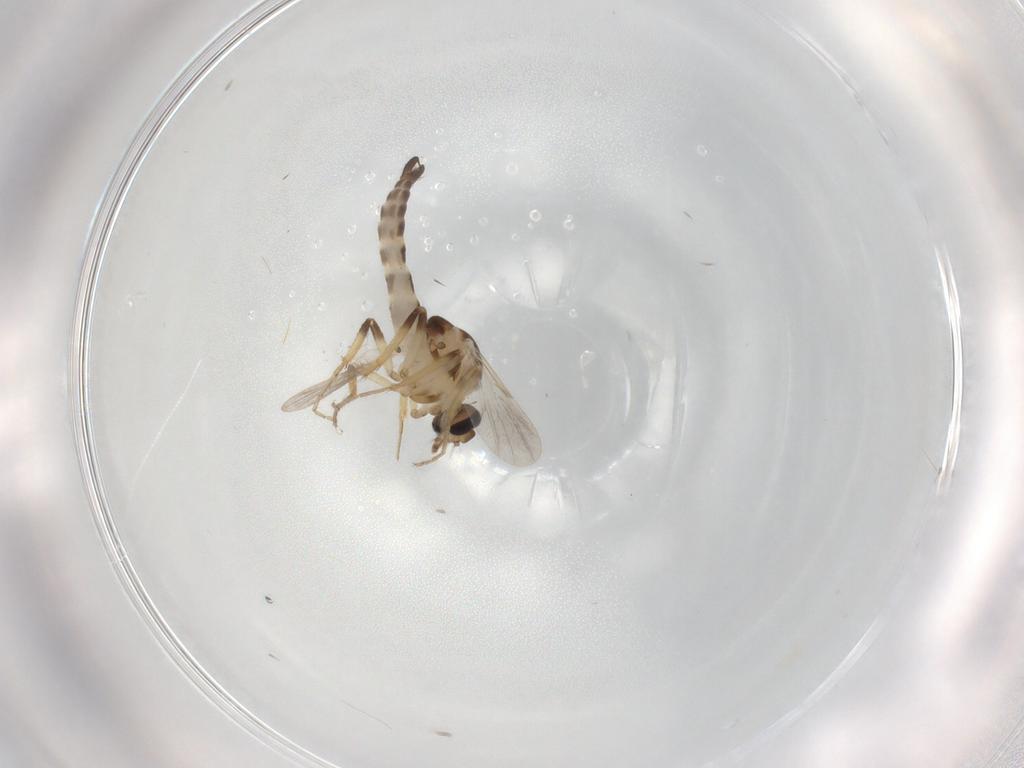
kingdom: Animalia
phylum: Arthropoda
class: Insecta
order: Diptera
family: Ceratopogonidae
